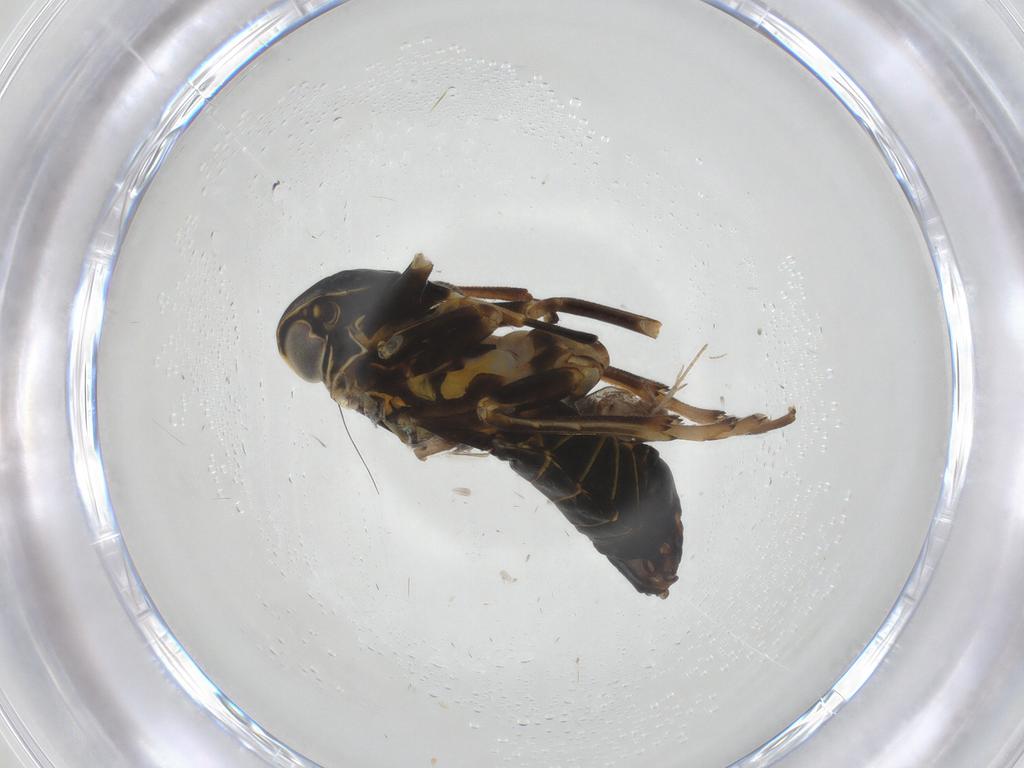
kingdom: Animalia
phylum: Arthropoda
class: Insecta
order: Hemiptera
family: Cixiidae
